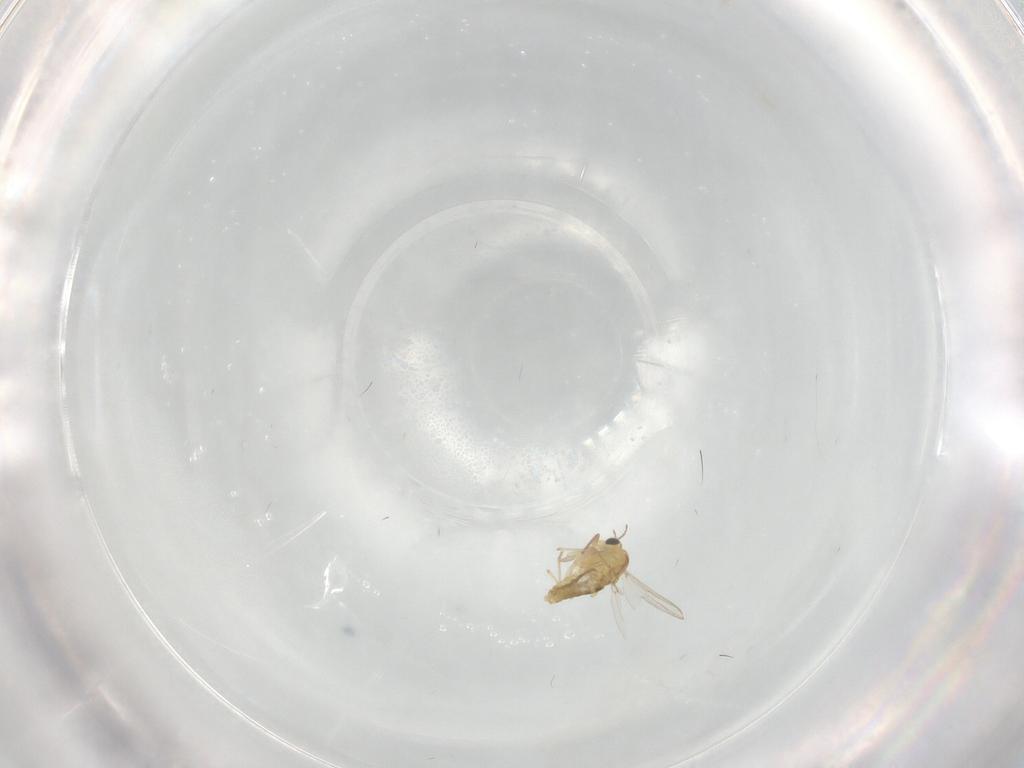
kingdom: Animalia
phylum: Arthropoda
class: Insecta
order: Diptera
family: Chironomidae
